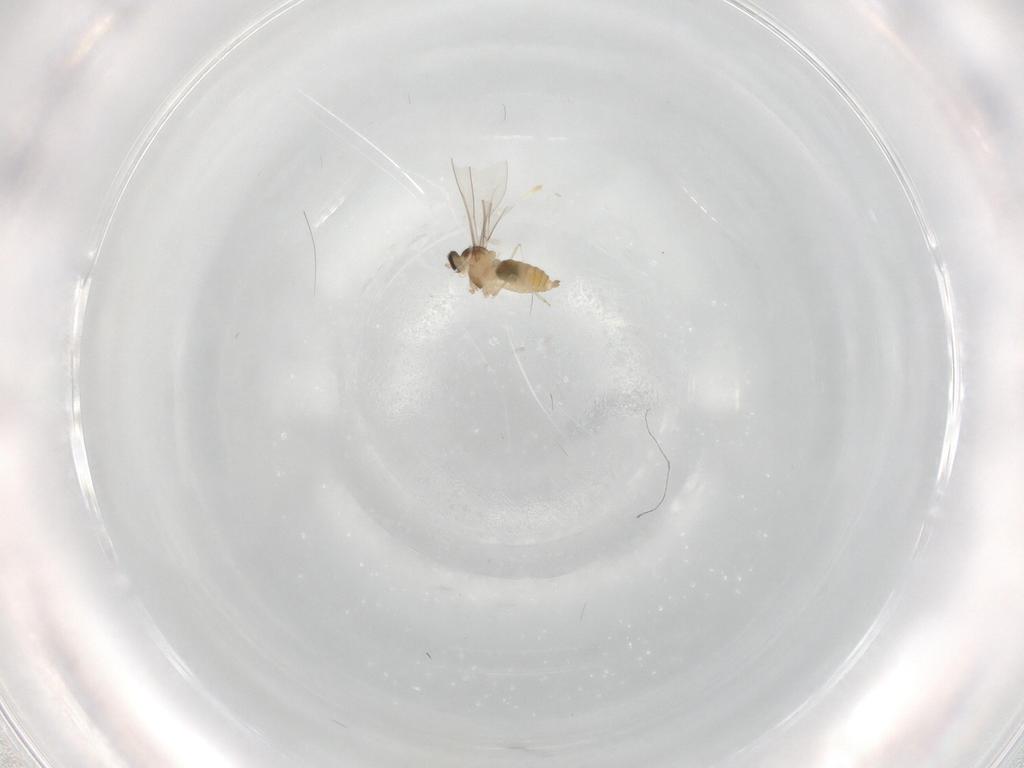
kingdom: Animalia
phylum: Arthropoda
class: Insecta
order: Diptera
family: Cecidomyiidae
